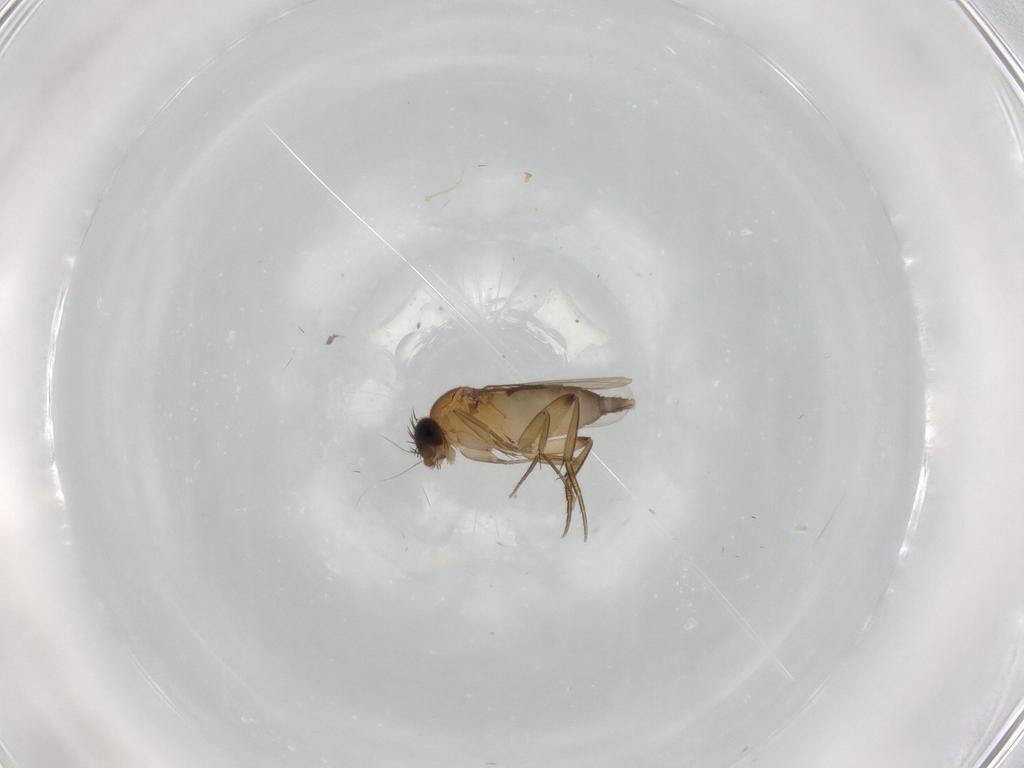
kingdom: Animalia
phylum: Arthropoda
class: Insecta
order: Diptera
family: Phoridae
